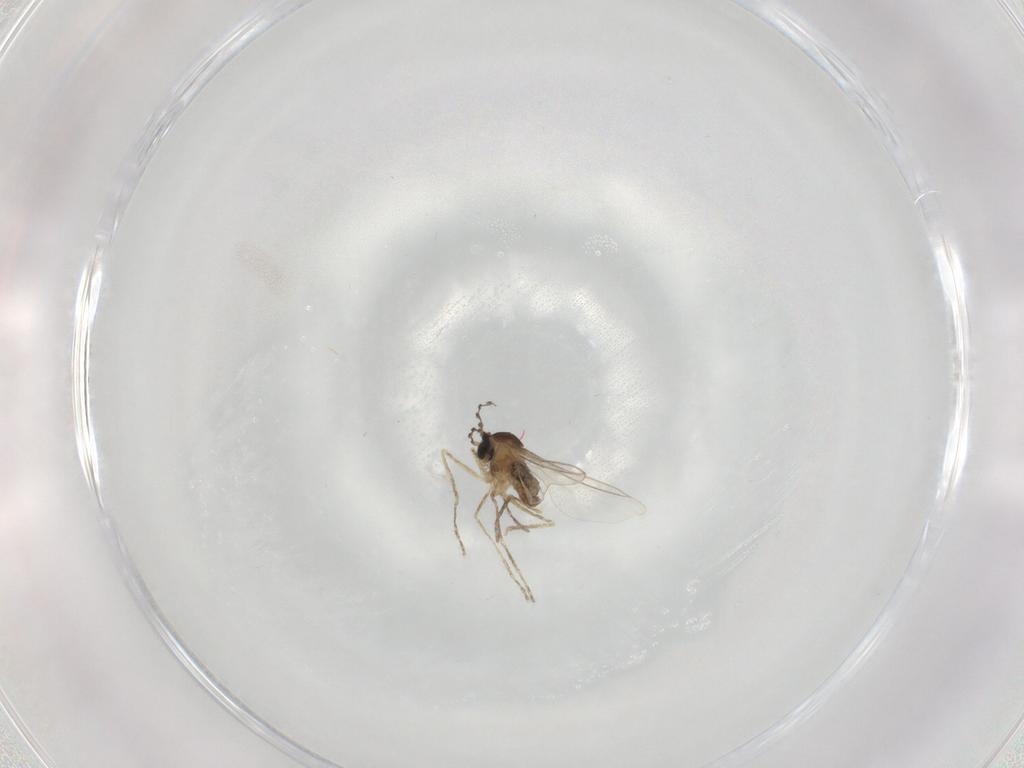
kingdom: Animalia
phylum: Arthropoda
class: Insecta
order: Diptera
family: Cecidomyiidae
